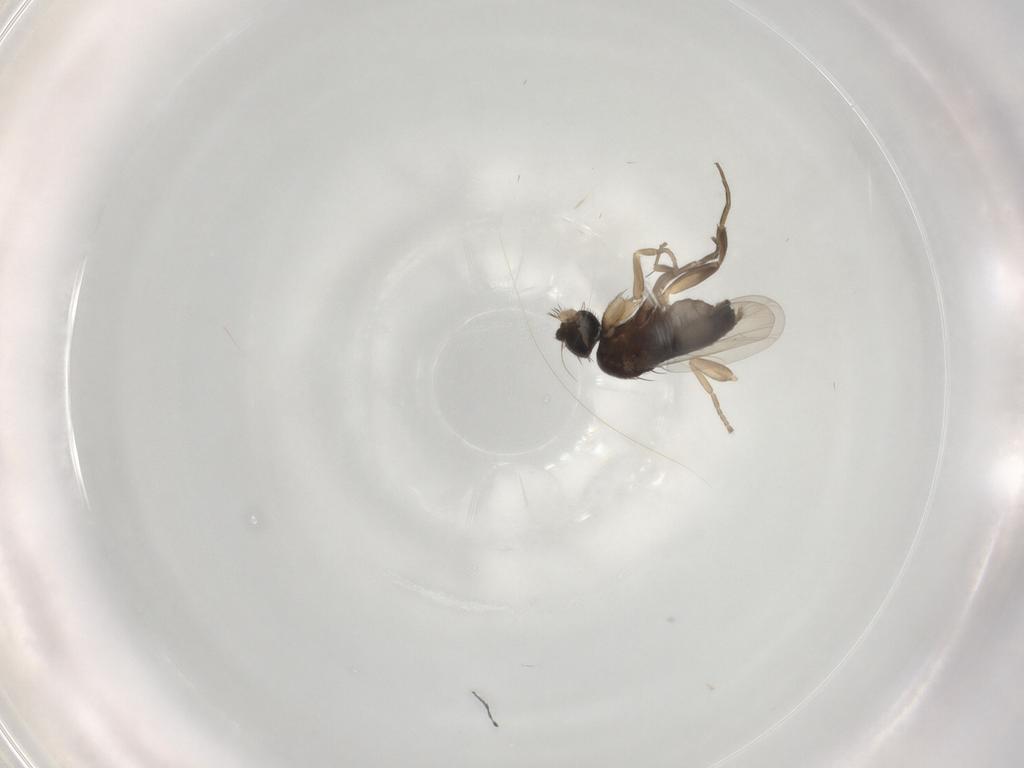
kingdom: Animalia
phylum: Arthropoda
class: Insecta
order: Diptera
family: Phoridae
